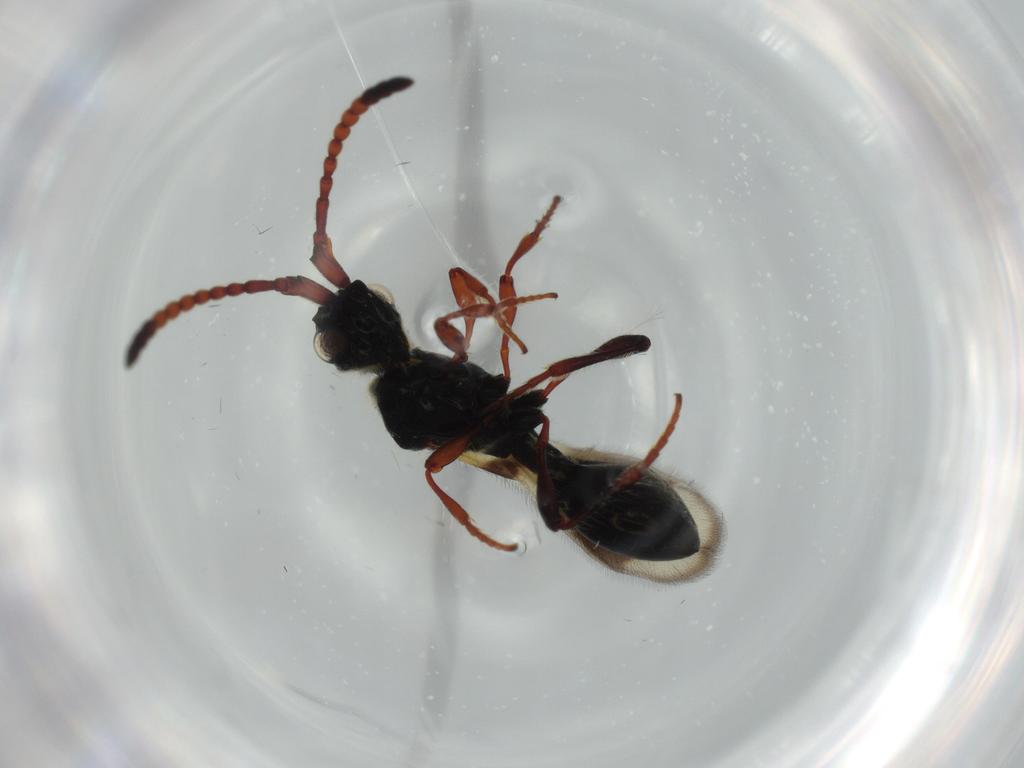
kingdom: Animalia
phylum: Arthropoda
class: Insecta
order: Hymenoptera
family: Diapriidae
